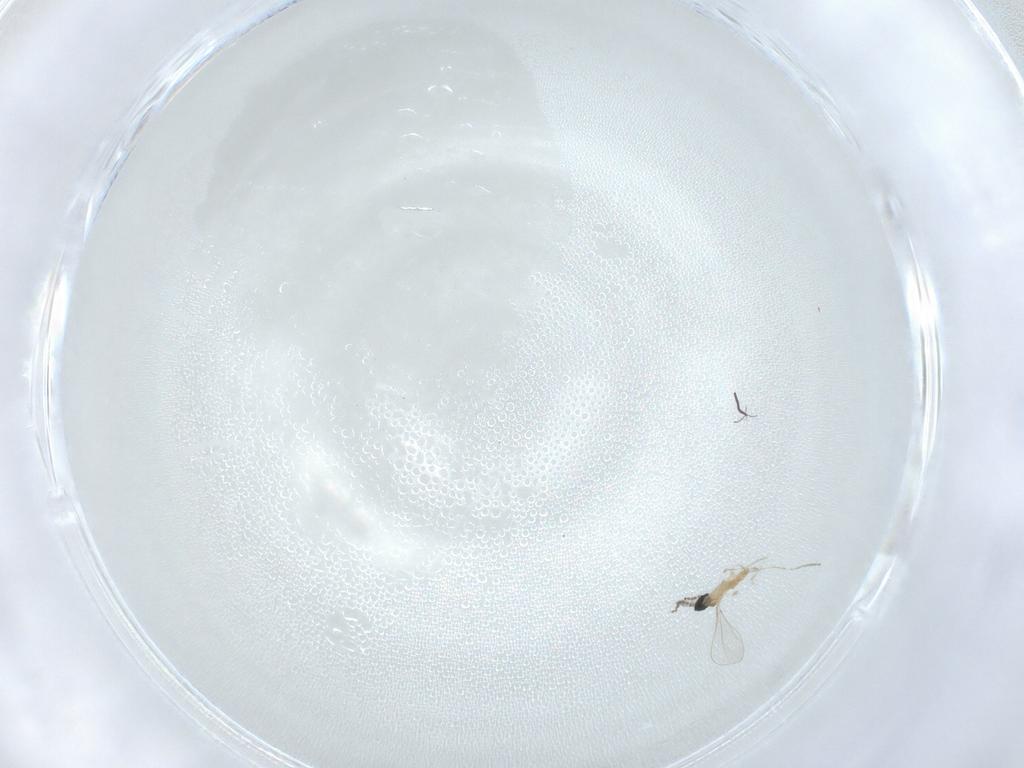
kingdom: Animalia
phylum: Arthropoda
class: Insecta
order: Diptera
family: Cecidomyiidae
